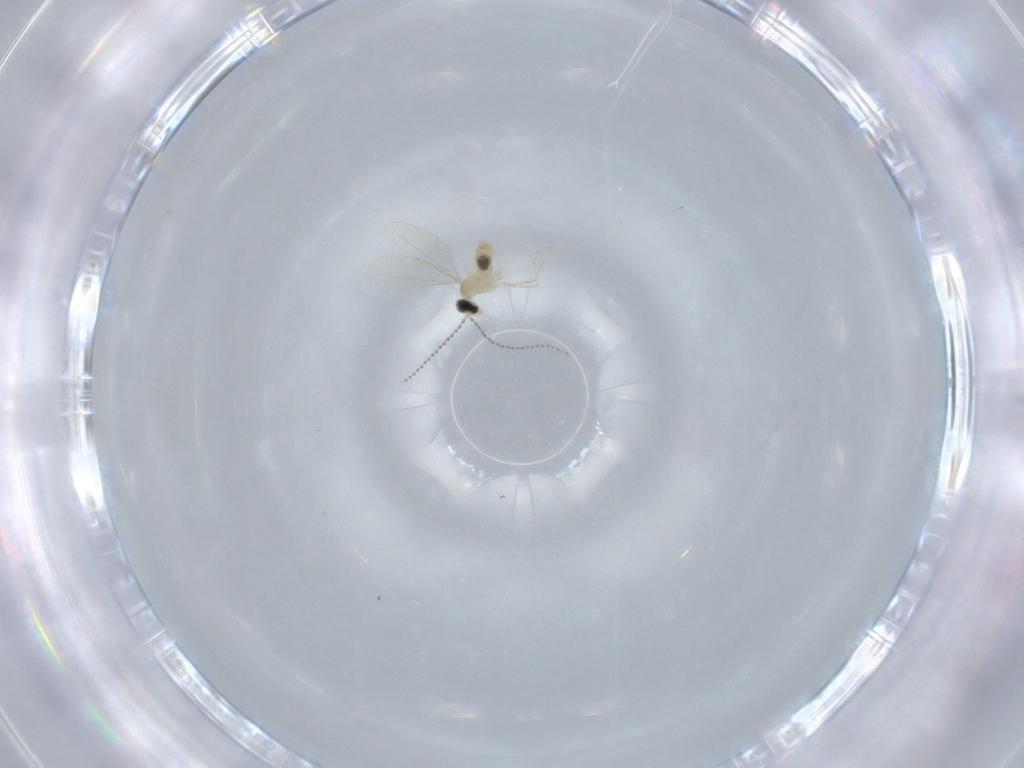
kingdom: Animalia
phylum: Arthropoda
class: Insecta
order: Diptera
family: Cecidomyiidae
